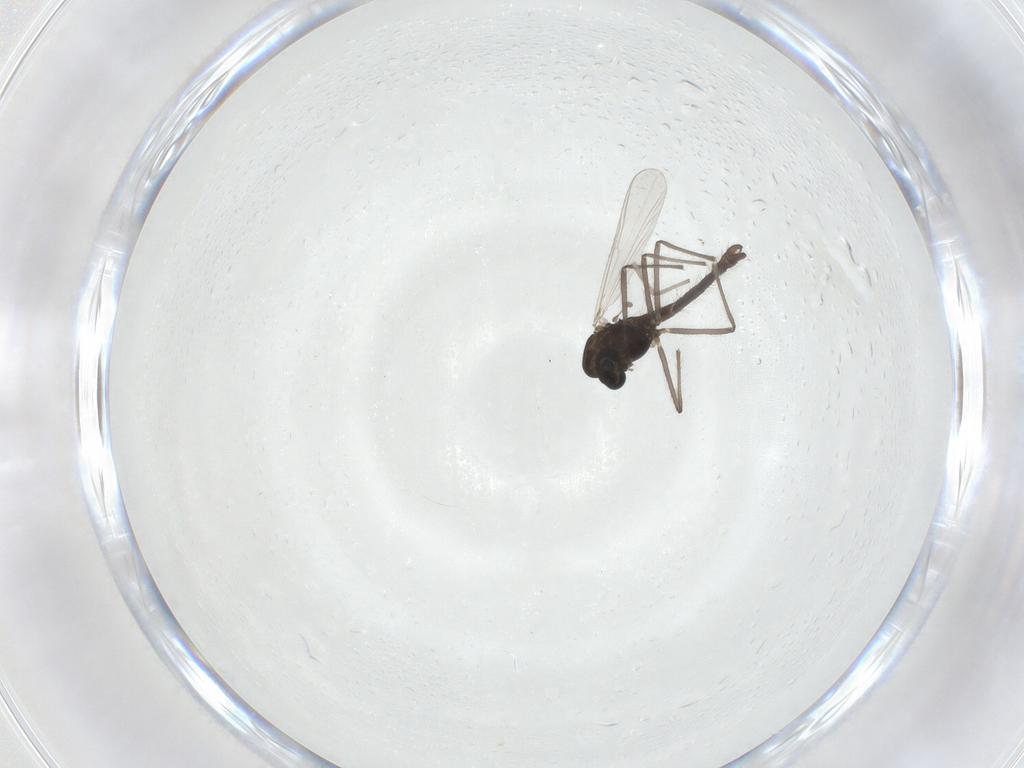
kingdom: Animalia
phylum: Arthropoda
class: Insecta
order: Diptera
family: Chironomidae
